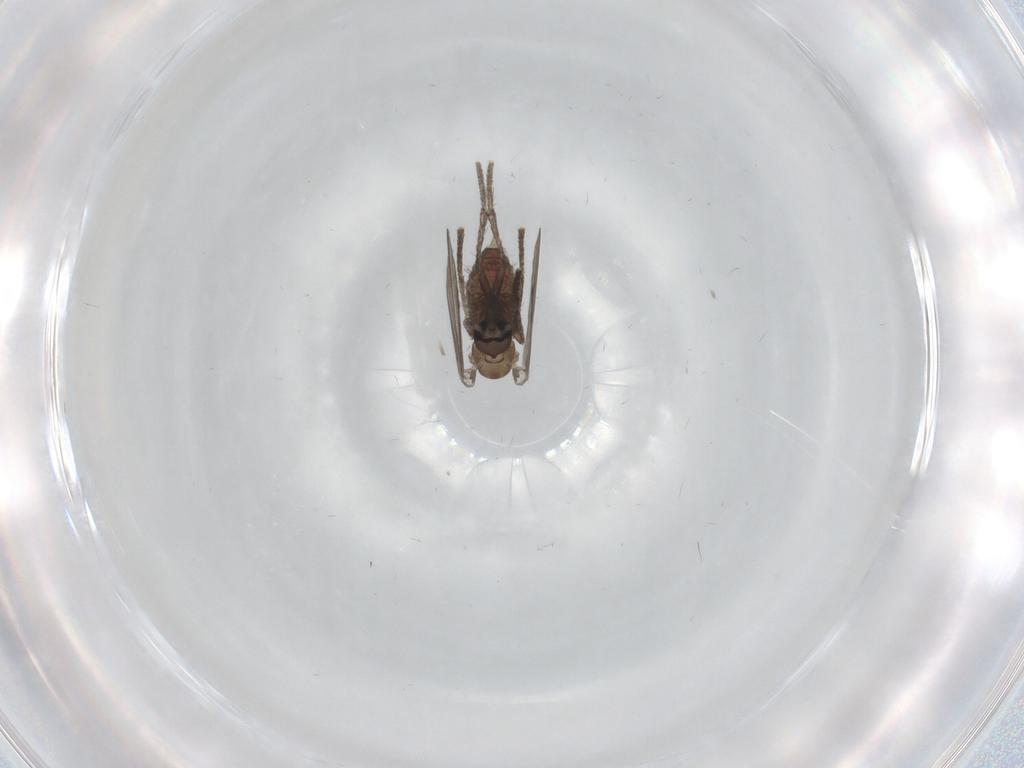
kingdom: Animalia
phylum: Arthropoda
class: Insecta
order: Diptera
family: Psychodidae
